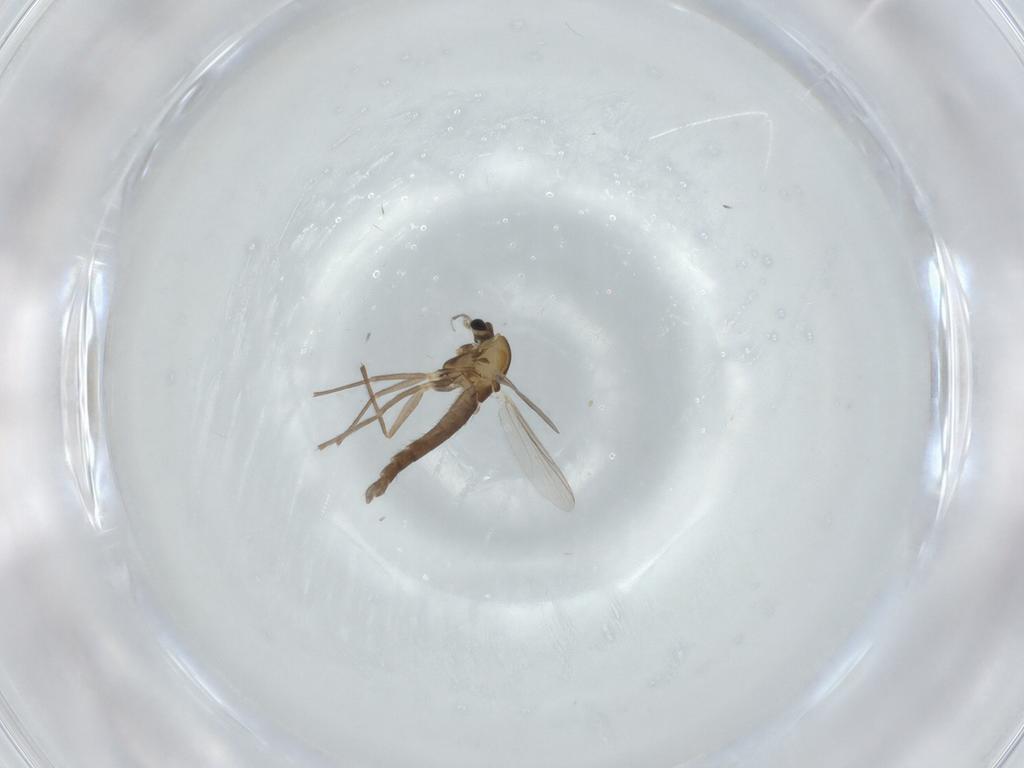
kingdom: Animalia
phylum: Arthropoda
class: Insecta
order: Diptera
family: Chironomidae
